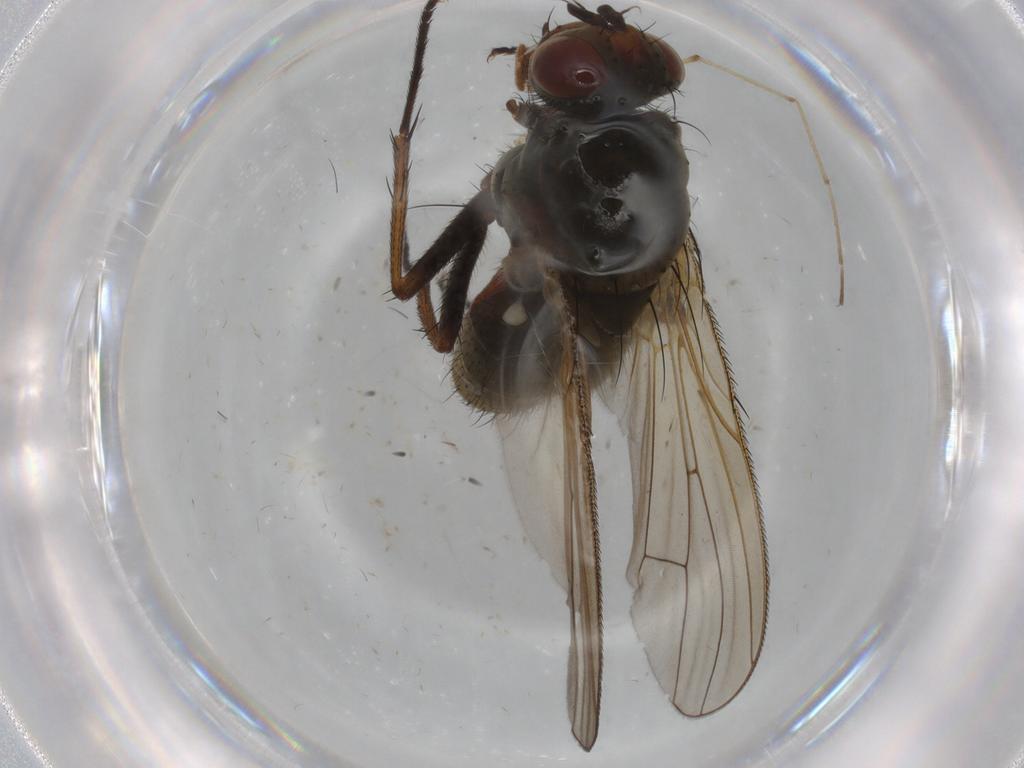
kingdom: Animalia
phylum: Arthropoda
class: Insecta
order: Diptera
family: Anthomyiidae
